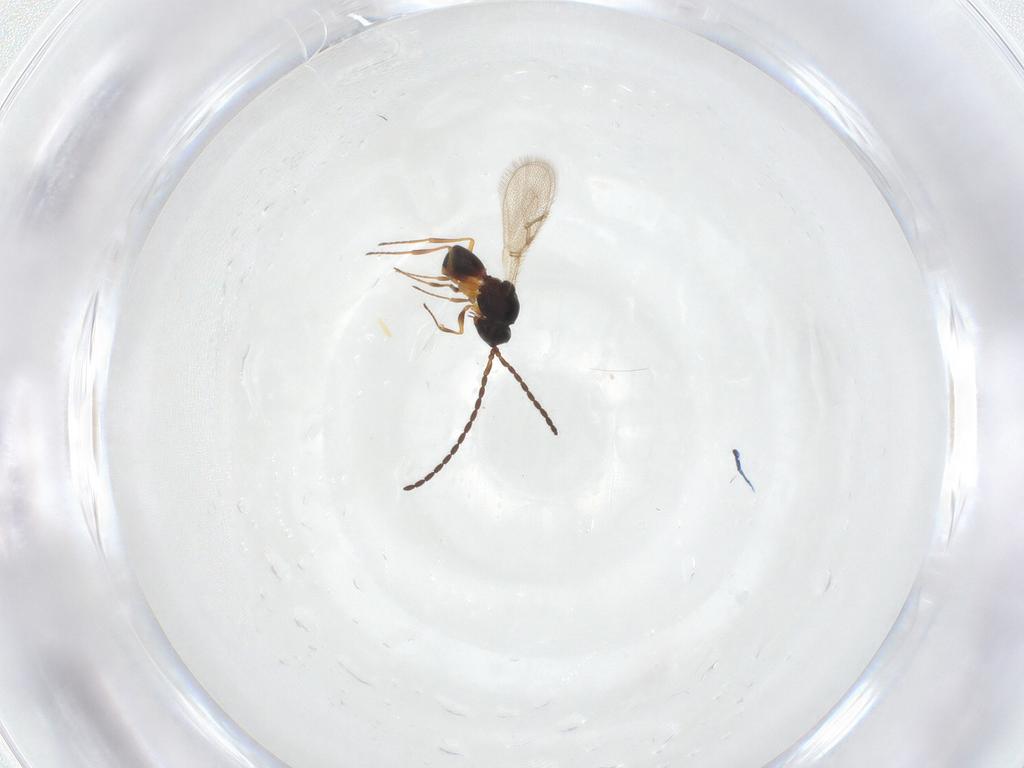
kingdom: Animalia
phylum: Arthropoda
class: Insecta
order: Hymenoptera
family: Figitidae
